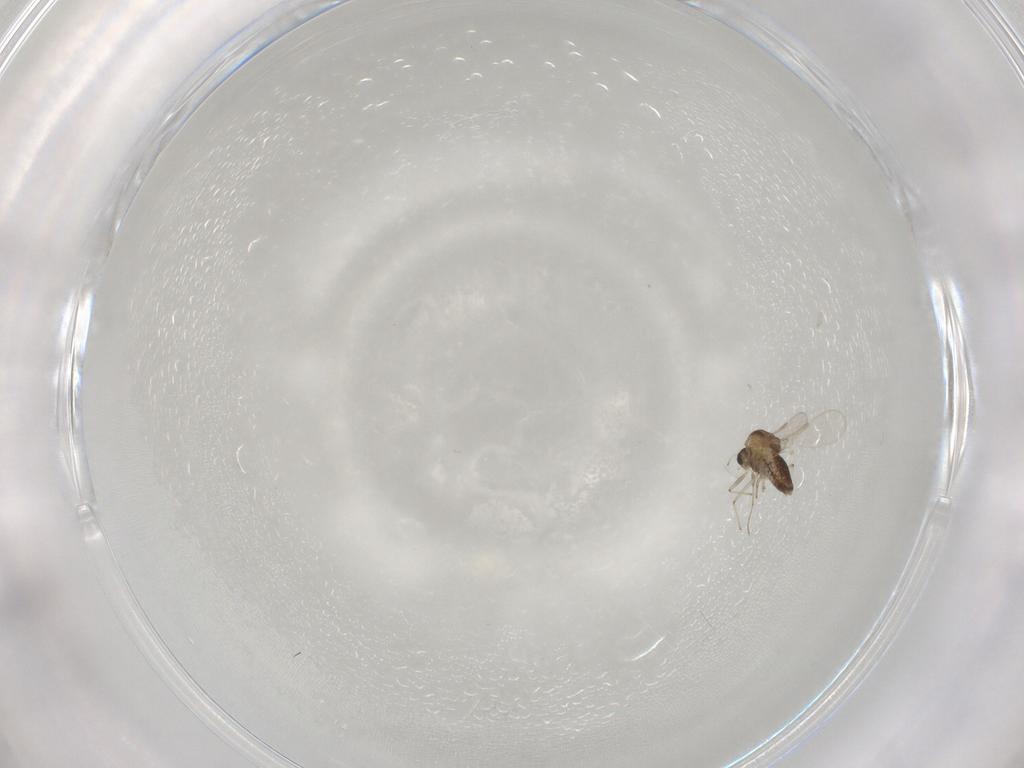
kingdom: Animalia
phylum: Arthropoda
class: Insecta
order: Diptera
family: Chironomidae
